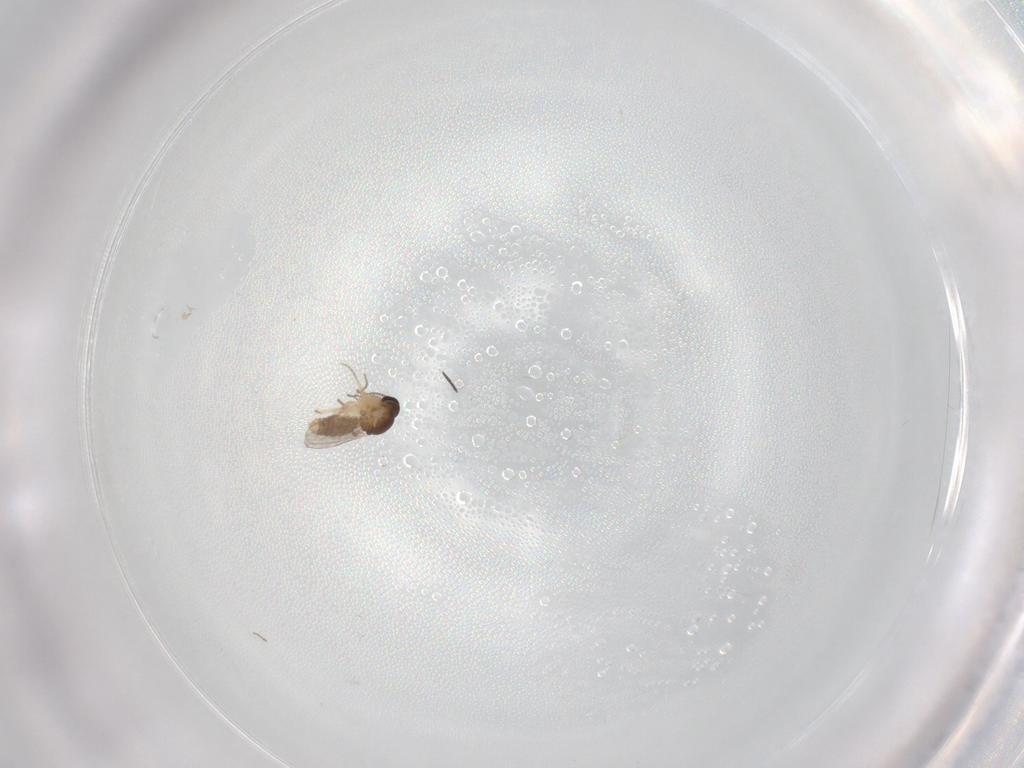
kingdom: Animalia
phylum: Arthropoda
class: Insecta
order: Diptera
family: Ceratopogonidae
